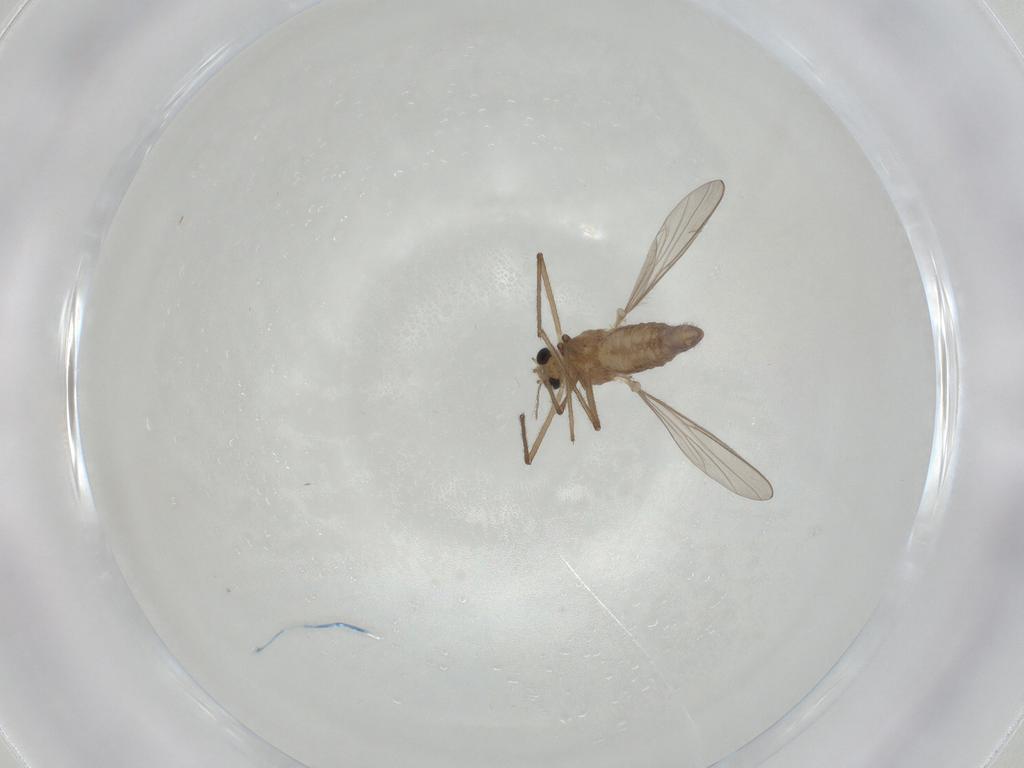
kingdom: Animalia
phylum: Arthropoda
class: Insecta
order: Diptera
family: Chironomidae
